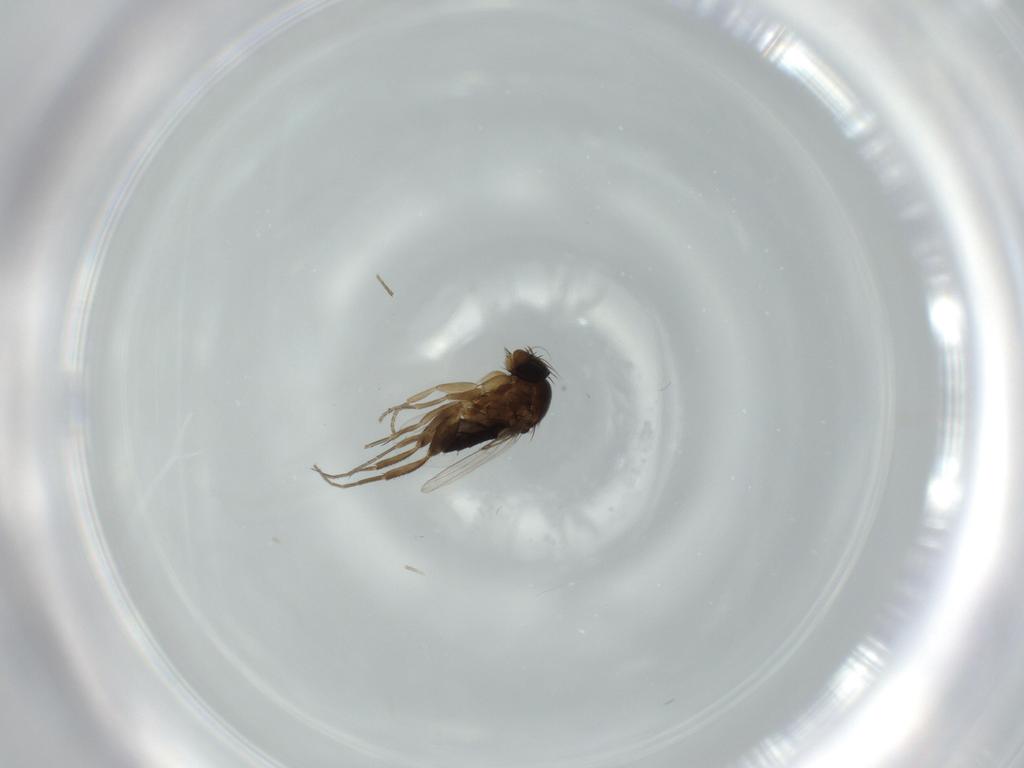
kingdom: Animalia
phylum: Arthropoda
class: Insecta
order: Diptera
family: Phoridae
